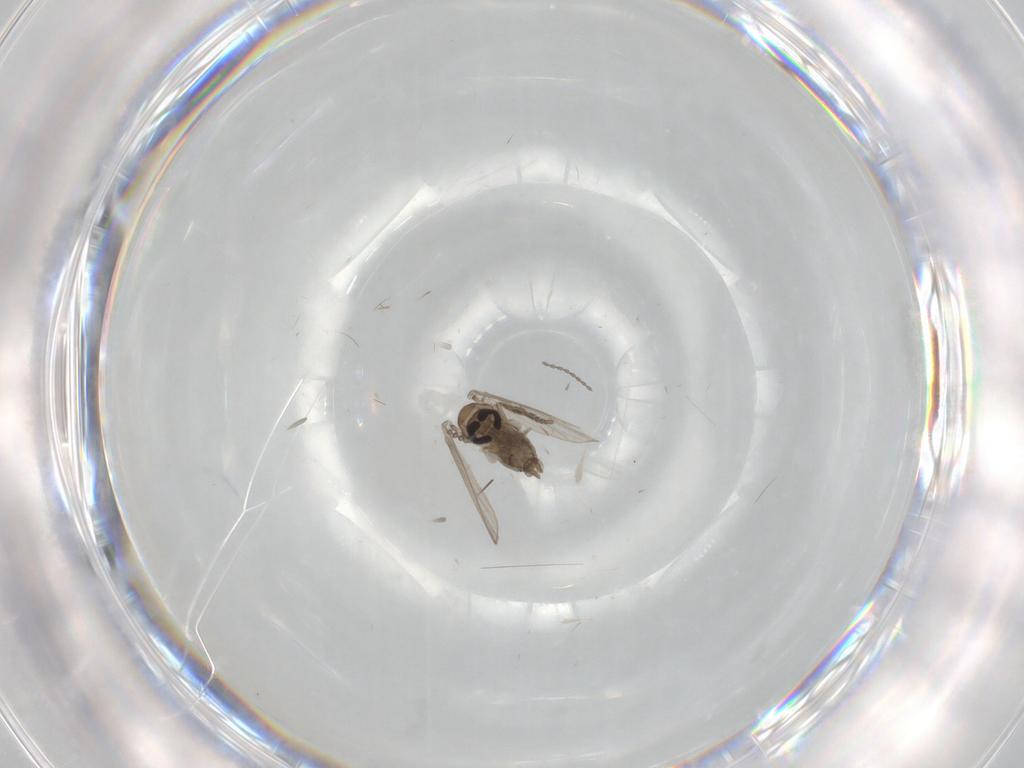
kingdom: Animalia
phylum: Arthropoda
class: Insecta
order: Diptera
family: Psychodidae
